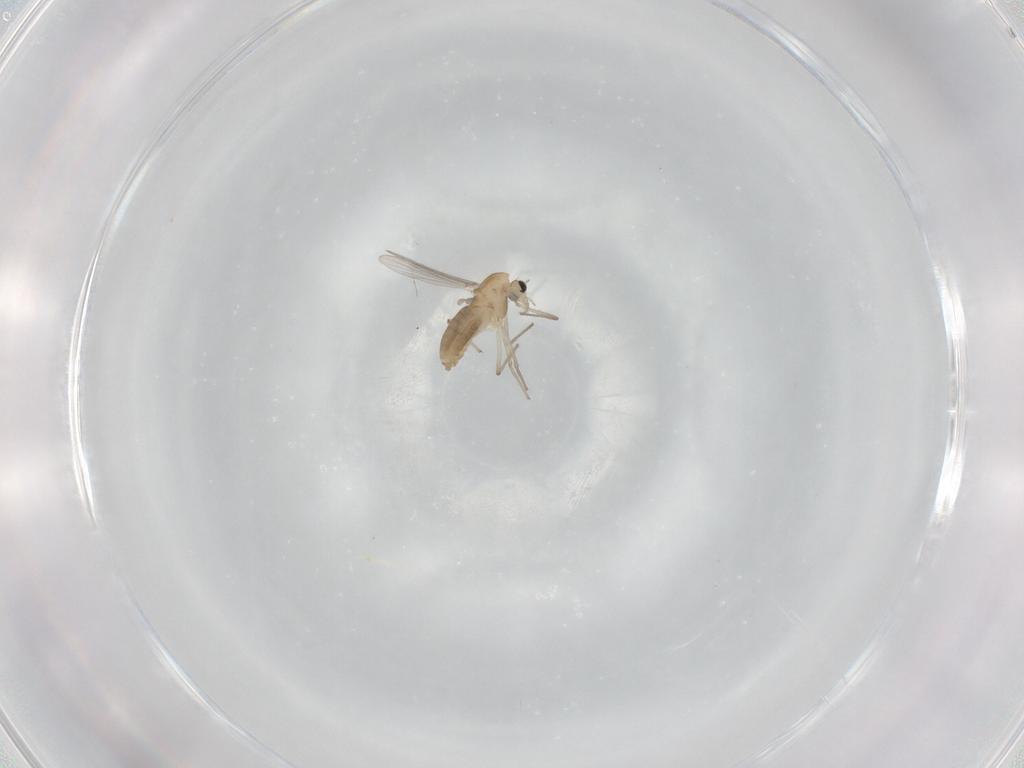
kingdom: Animalia
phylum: Arthropoda
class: Insecta
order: Diptera
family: Chironomidae
